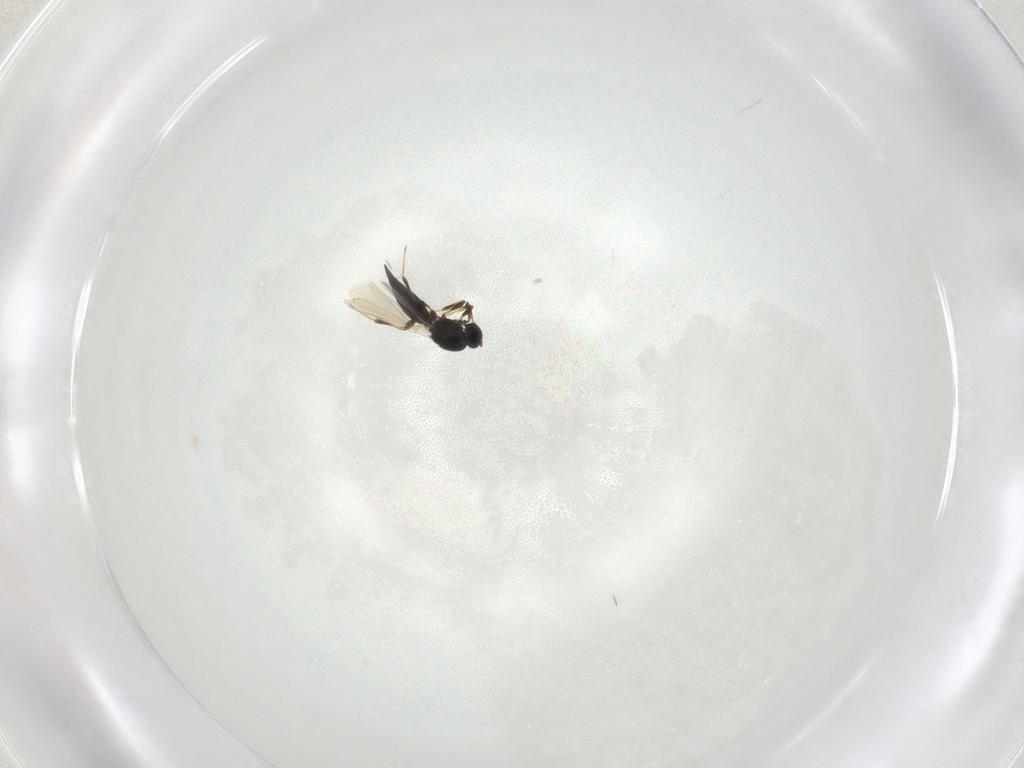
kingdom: Animalia
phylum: Arthropoda
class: Insecta
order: Hymenoptera
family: Platygastridae
